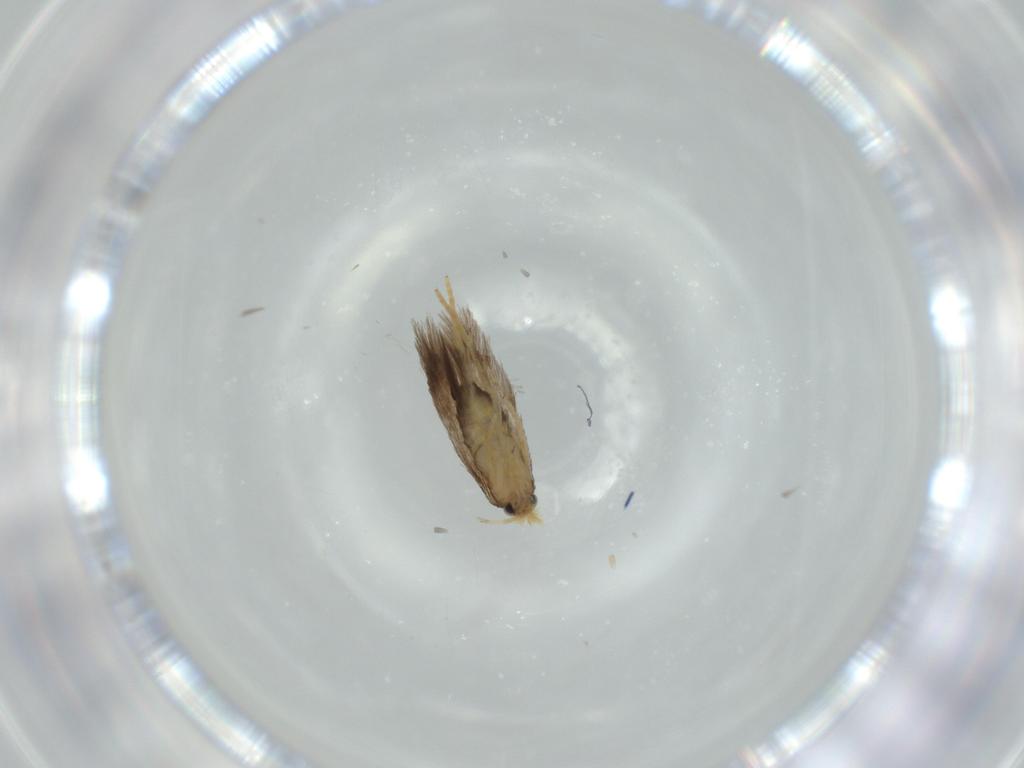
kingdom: Animalia
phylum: Arthropoda
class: Insecta
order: Lepidoptera
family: Nepticulidae
